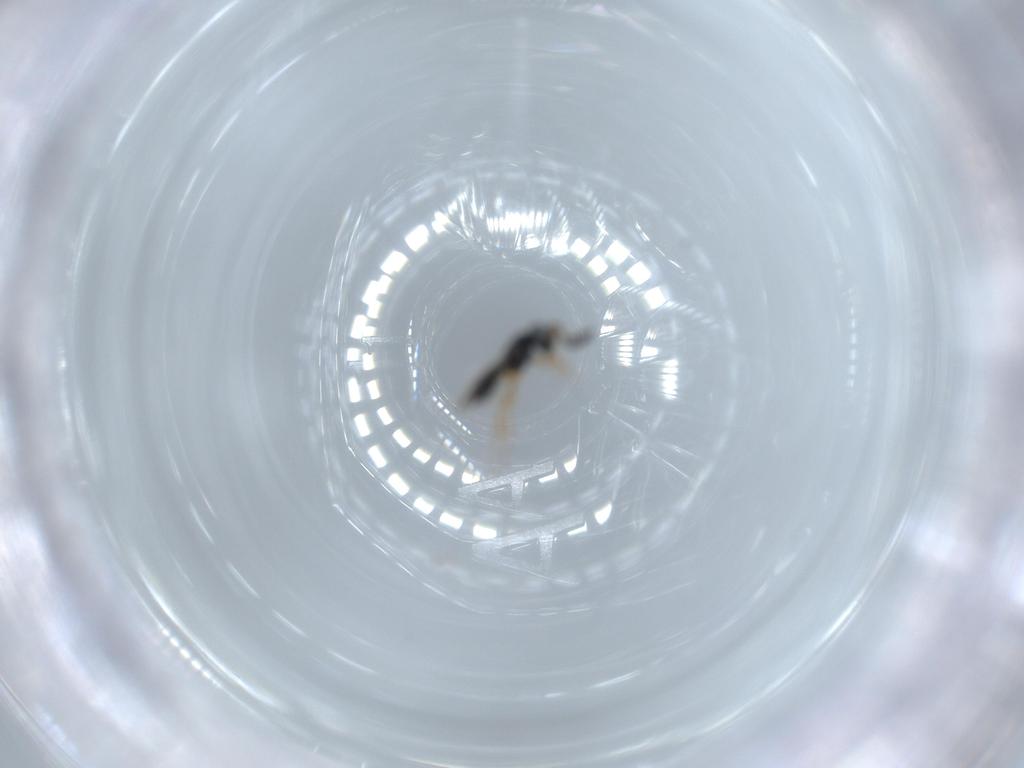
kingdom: Animalia
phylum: Arthropoda
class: Insecta
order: Hymenoptera
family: Scelionidae
